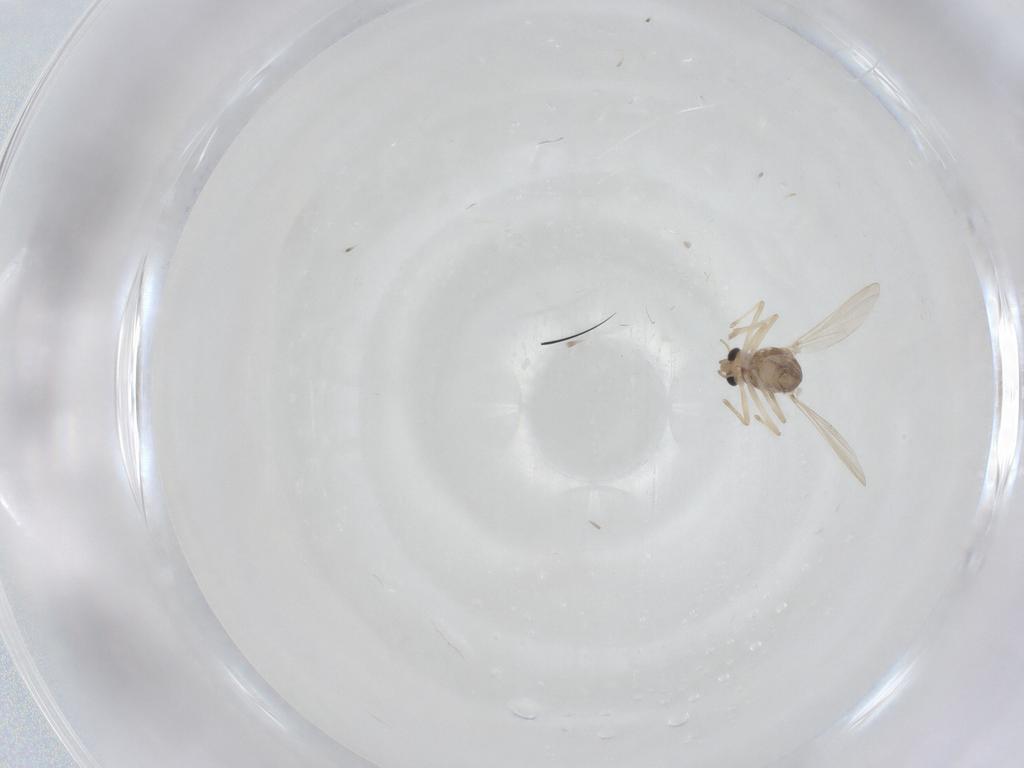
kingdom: Animalia
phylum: Arthropoda
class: Insecta
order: Diptera
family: Chironomidae
